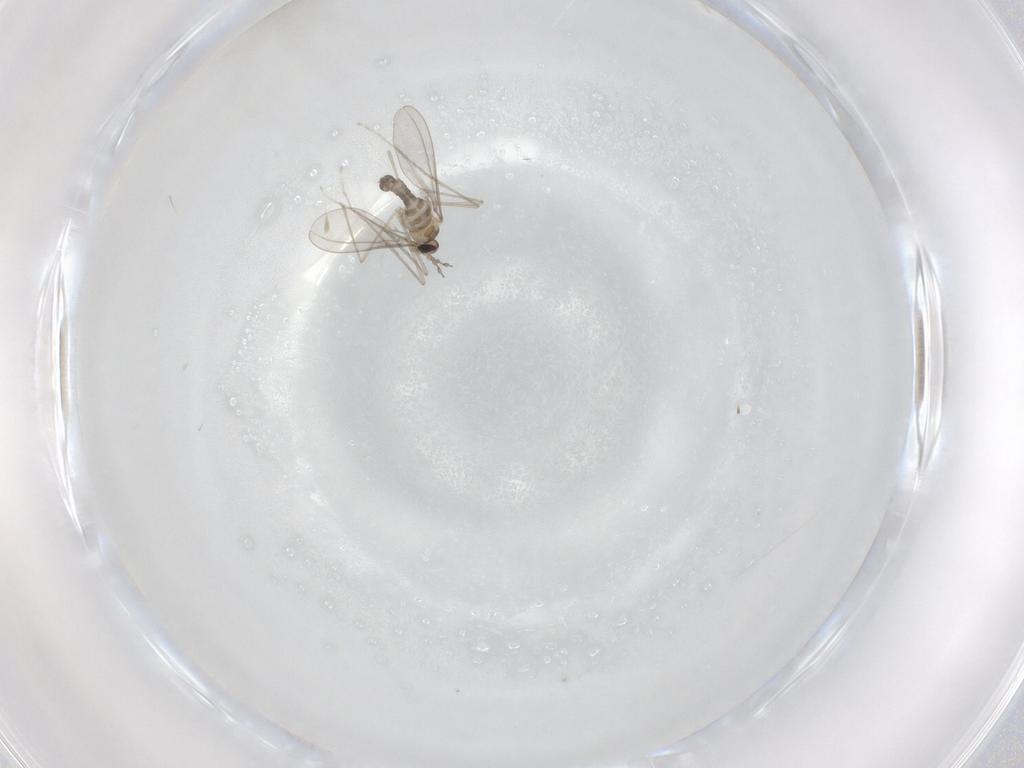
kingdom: Animalia
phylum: Arthropoda
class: Insecta
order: Diptera
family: Cecidomyiidae
